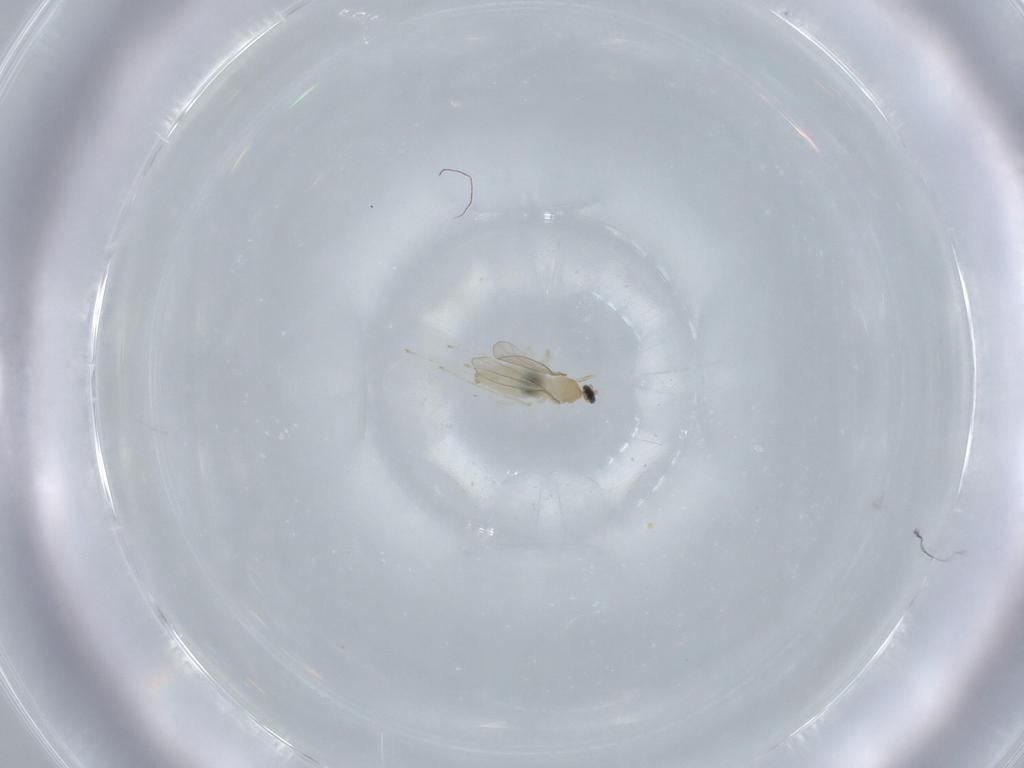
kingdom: Animalia
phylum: Arthropoda
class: Insecta
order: Diptera
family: Cecidomyiidae
